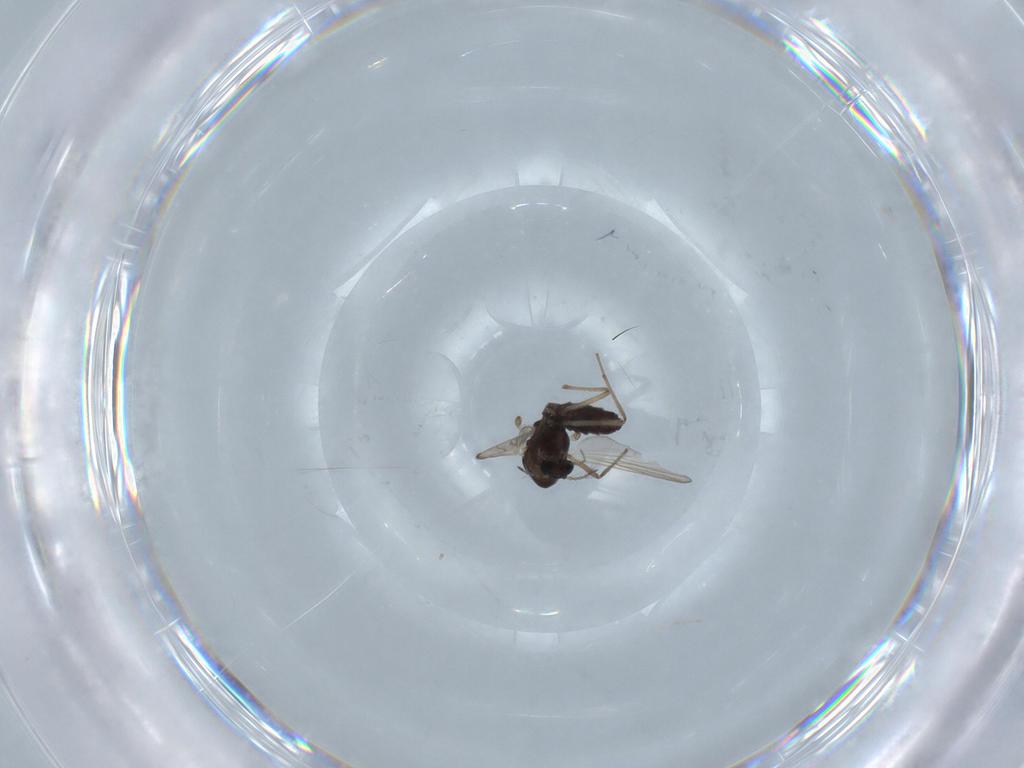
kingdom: Animalia
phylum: Arthropoda
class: Insecta
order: Diptera
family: Chironomidae
